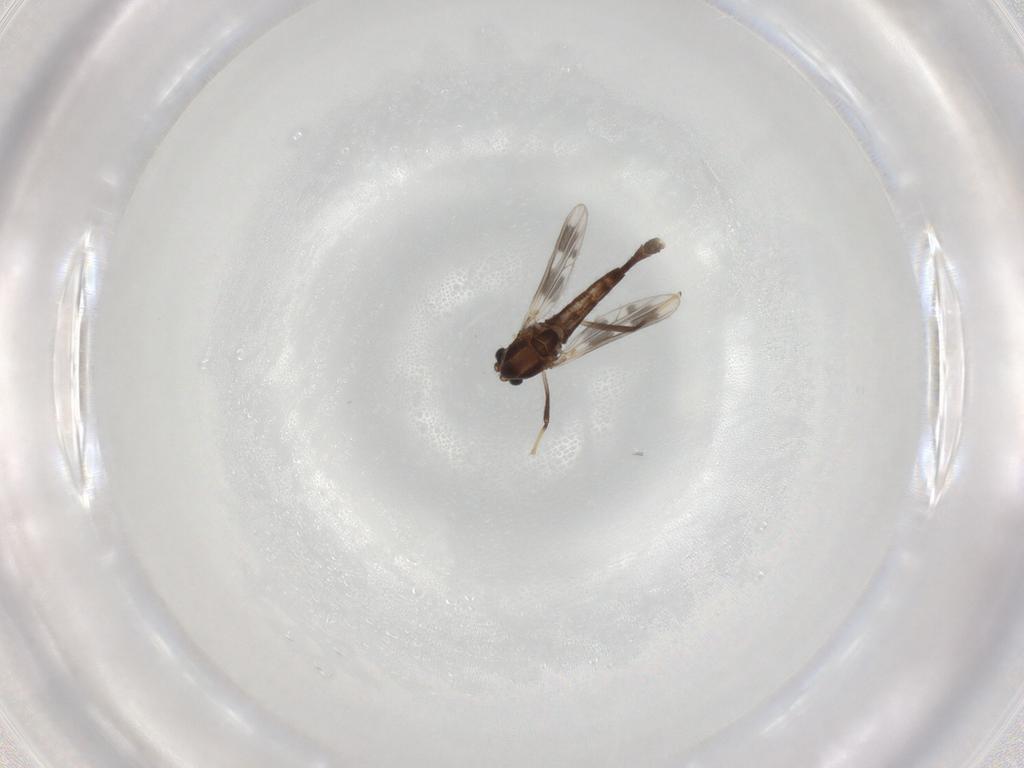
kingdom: Animalia
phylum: Arthropoda
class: Insecta
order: Diptera
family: Chironomidae
